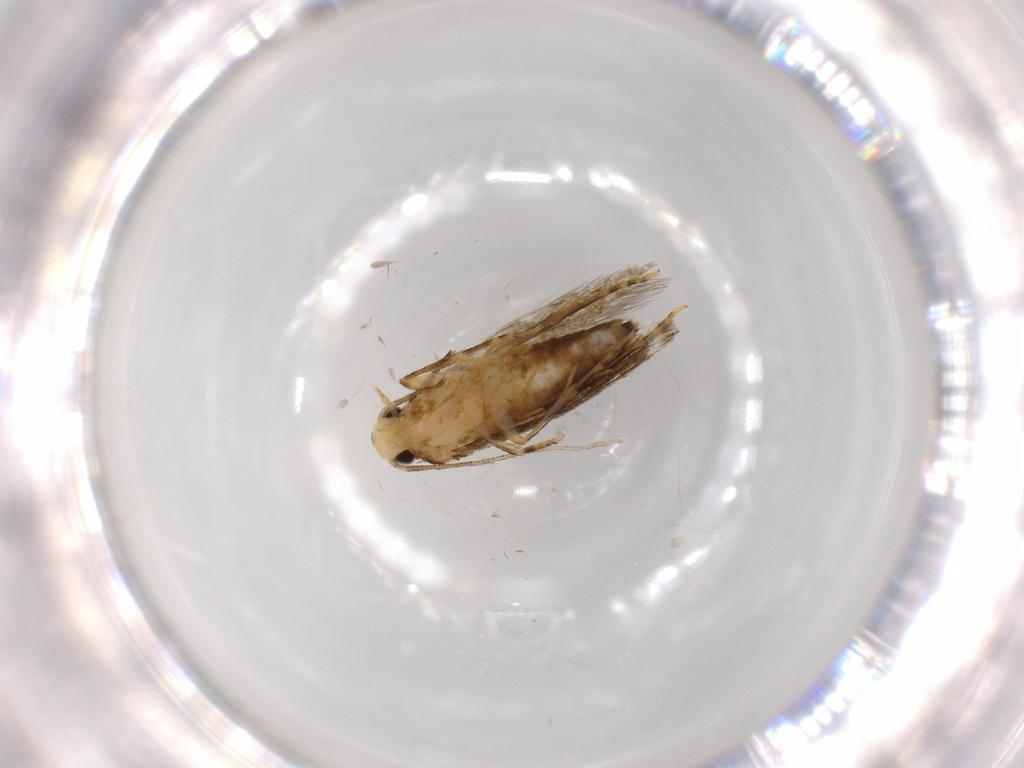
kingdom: Animalia
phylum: Arthropoda
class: Insecta
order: Lepidoptera
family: Tineidae
